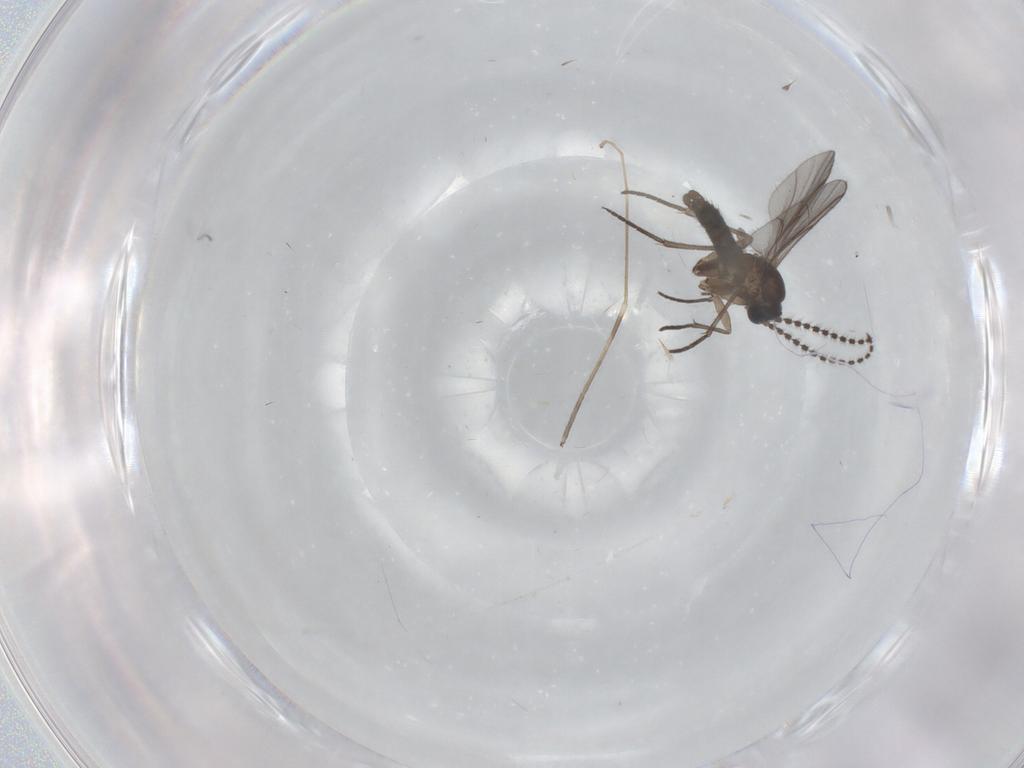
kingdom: Animalia
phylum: Arthropoda
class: Insecta
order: Diptera
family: Sciaridae
